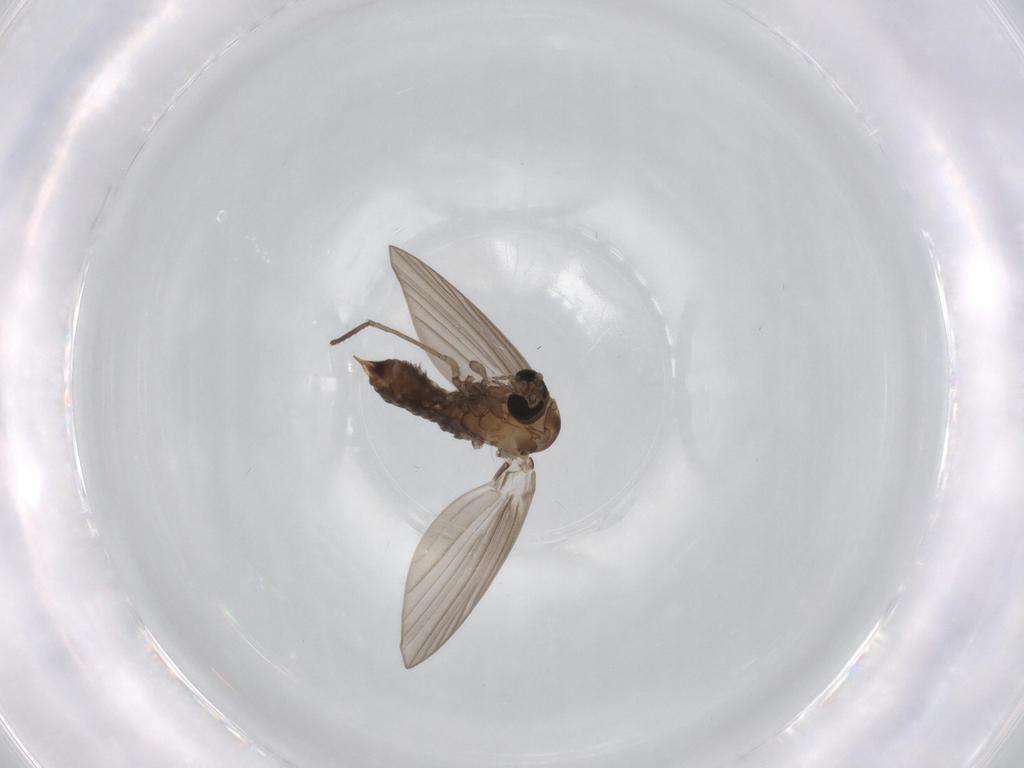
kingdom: Animalia
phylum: Arthropoda
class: Insecta
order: Diptera
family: Psychodidae
